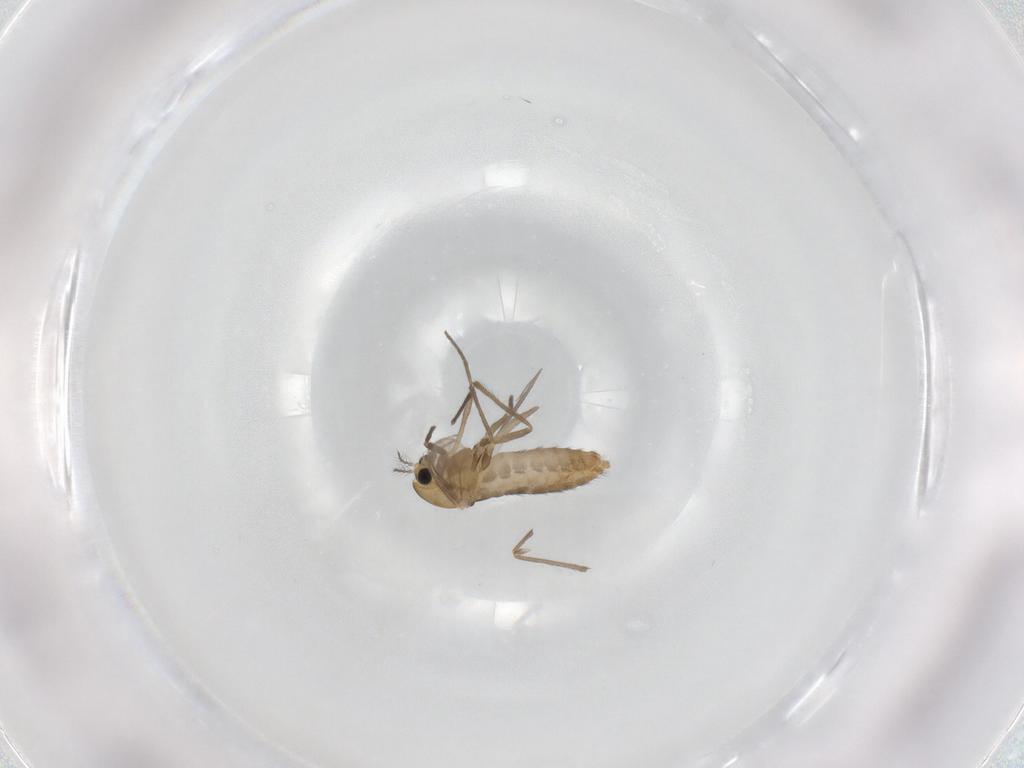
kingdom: Animalia
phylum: Arthropoda
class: Insecta
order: Diptera
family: Chironomidae
